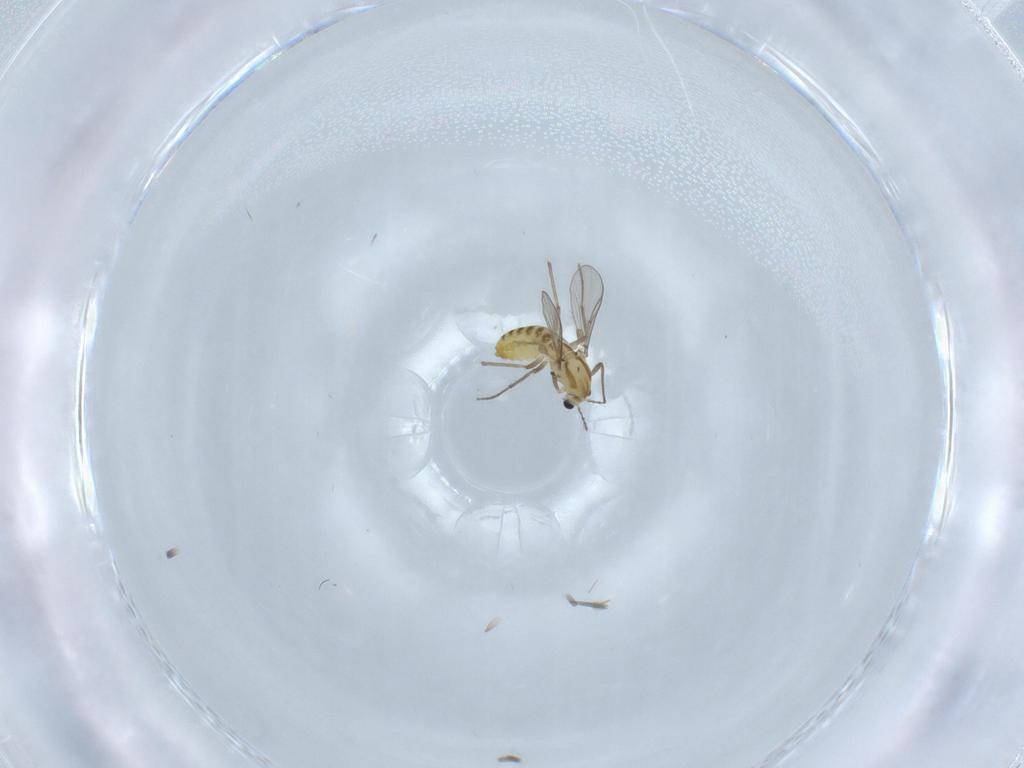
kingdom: Animalia
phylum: Arthropoda
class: Insecta
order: Diptera
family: Chironomidae
